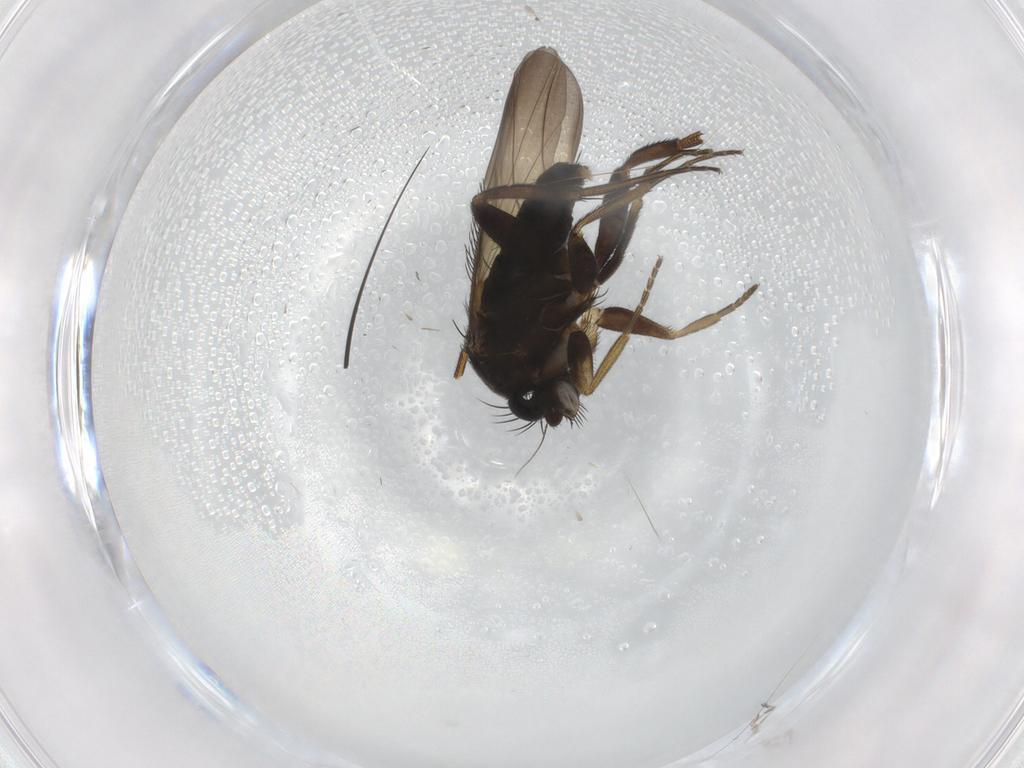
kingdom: Animalia
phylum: Arthropoda
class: Insecta
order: Diptera
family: Phoridae
